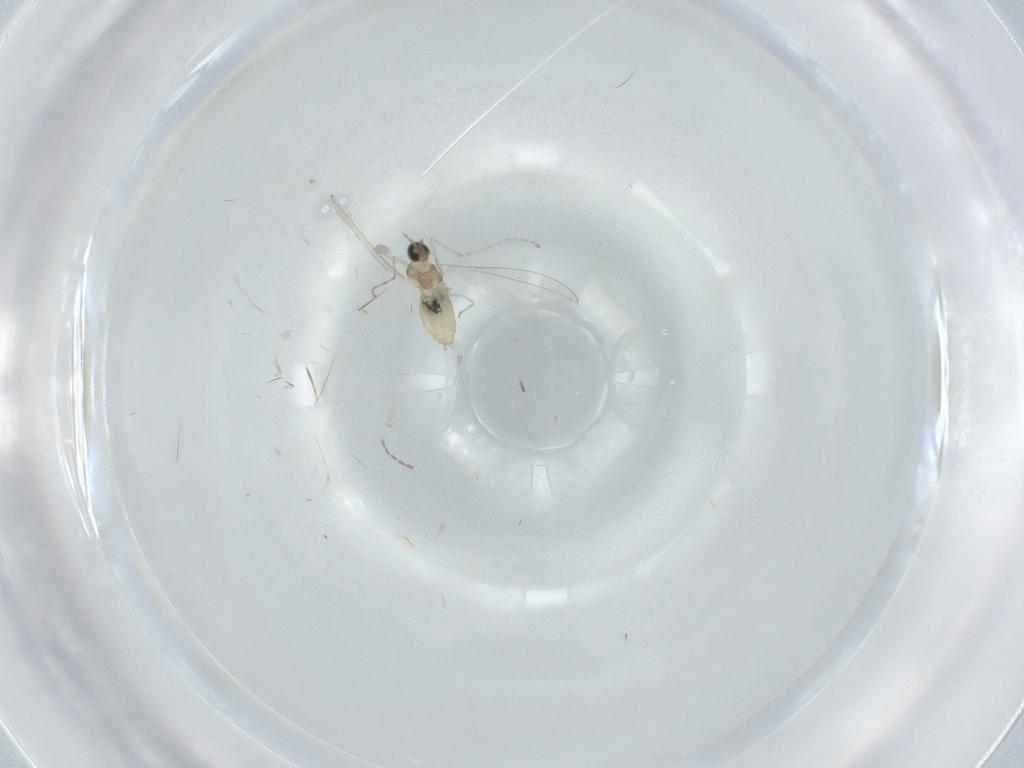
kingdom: Animalia
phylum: Arthropoda
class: Insecta
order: Diptera
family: Cecidomyiidae
